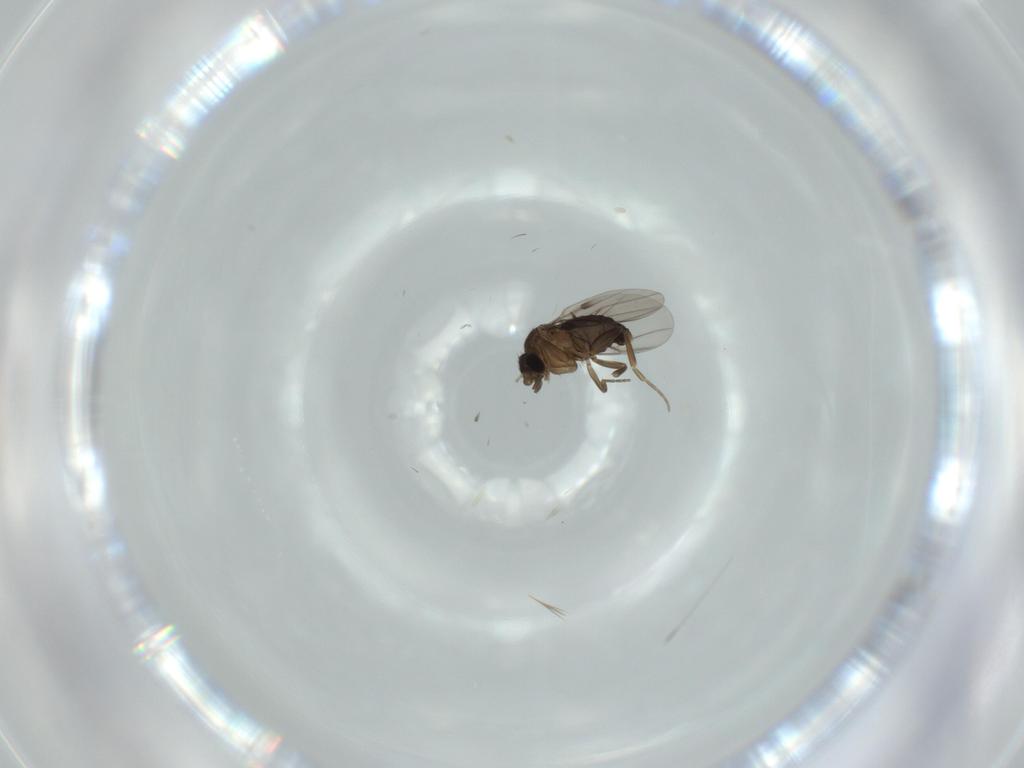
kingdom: Animalia
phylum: Arthropoda
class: Insecta
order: Diptera
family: Phoridae
